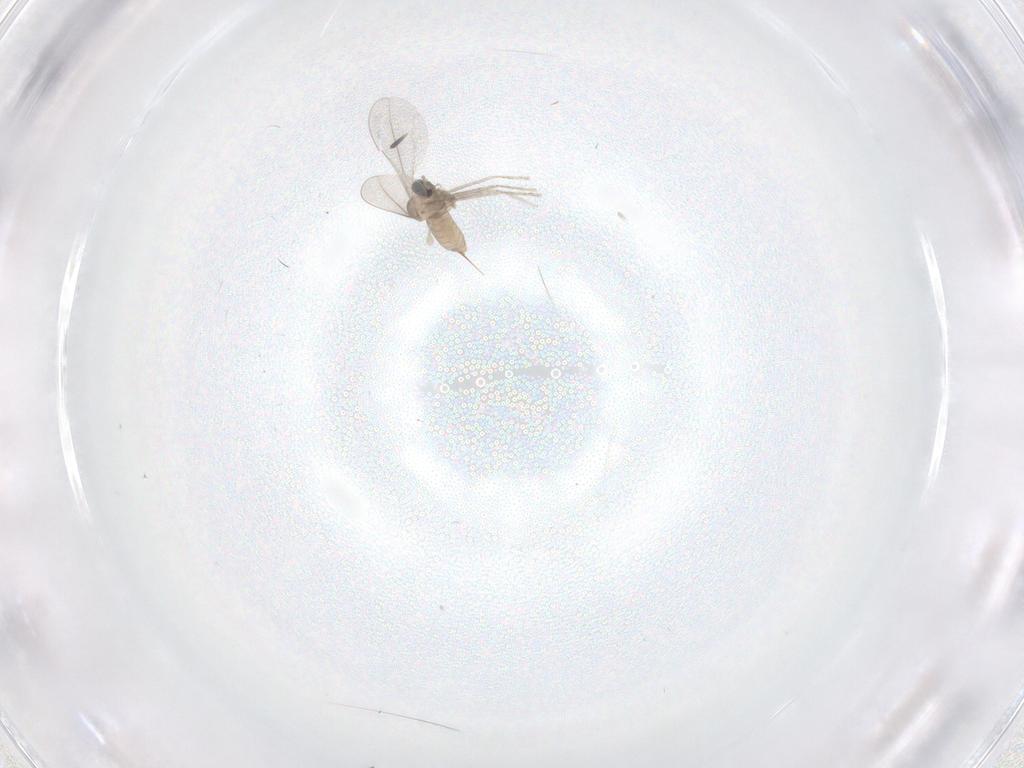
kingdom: Animalia
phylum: Arthropoda
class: Insecta
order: Diptera
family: Cecidomyiidae
